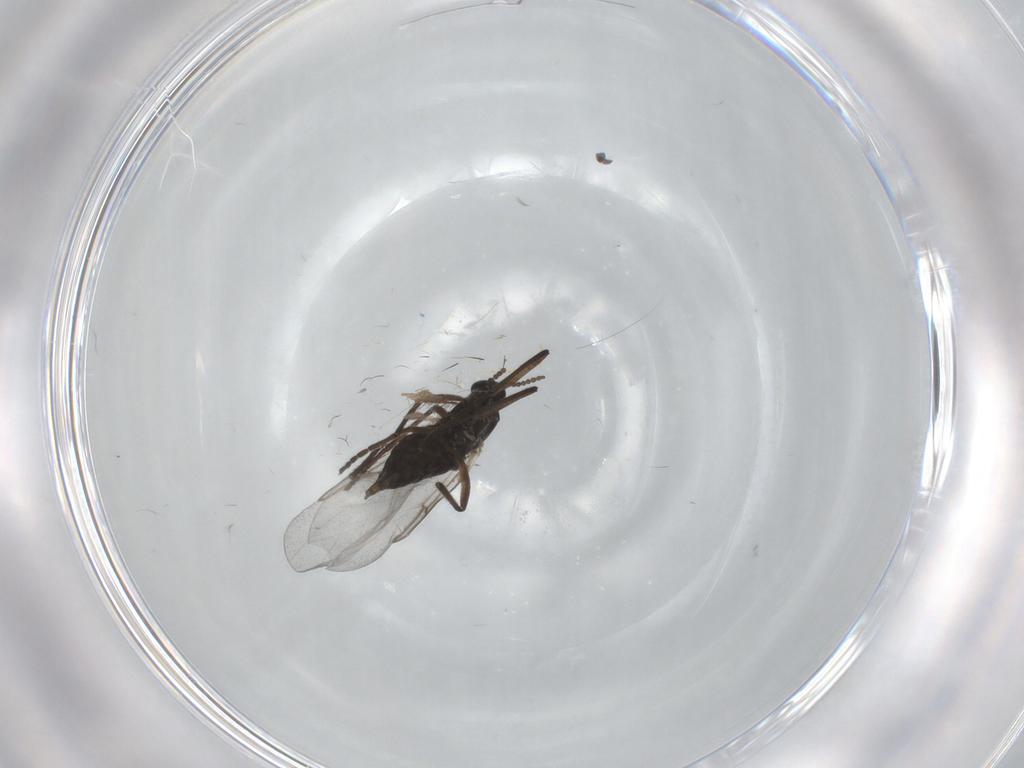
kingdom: Animalia
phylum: Arthropoda
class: Insecta
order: Diptera
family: Cecidomyiidae
